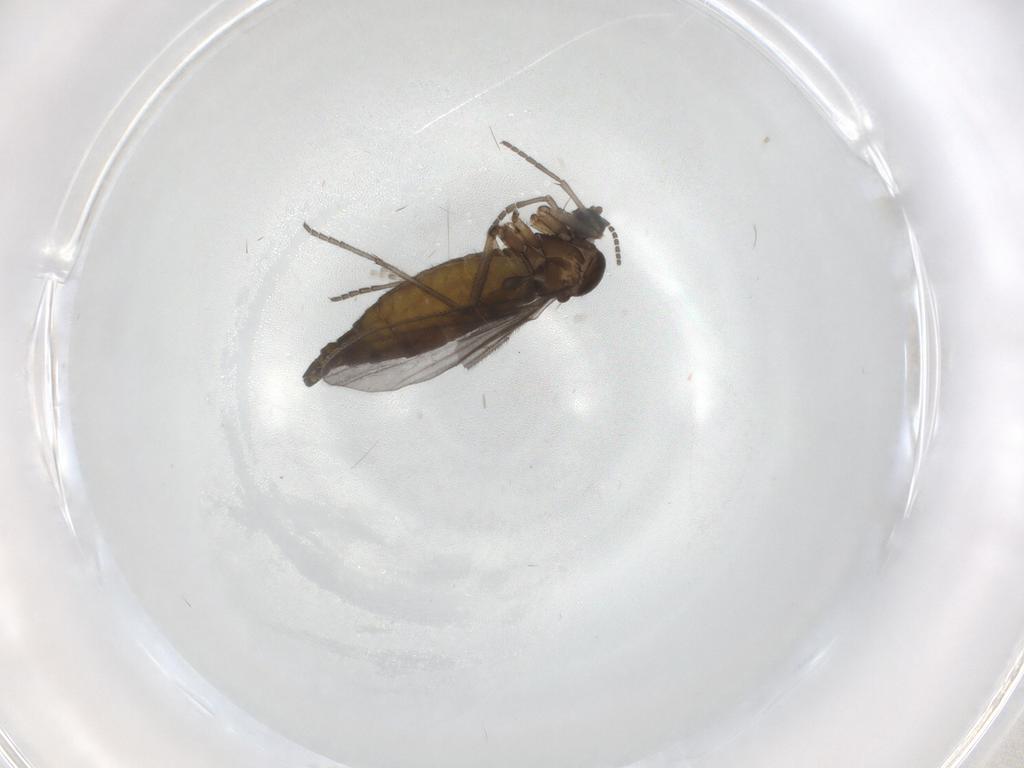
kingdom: Animalia
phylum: Arthropoda
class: Insecta
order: Diptera
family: Sciaridae
